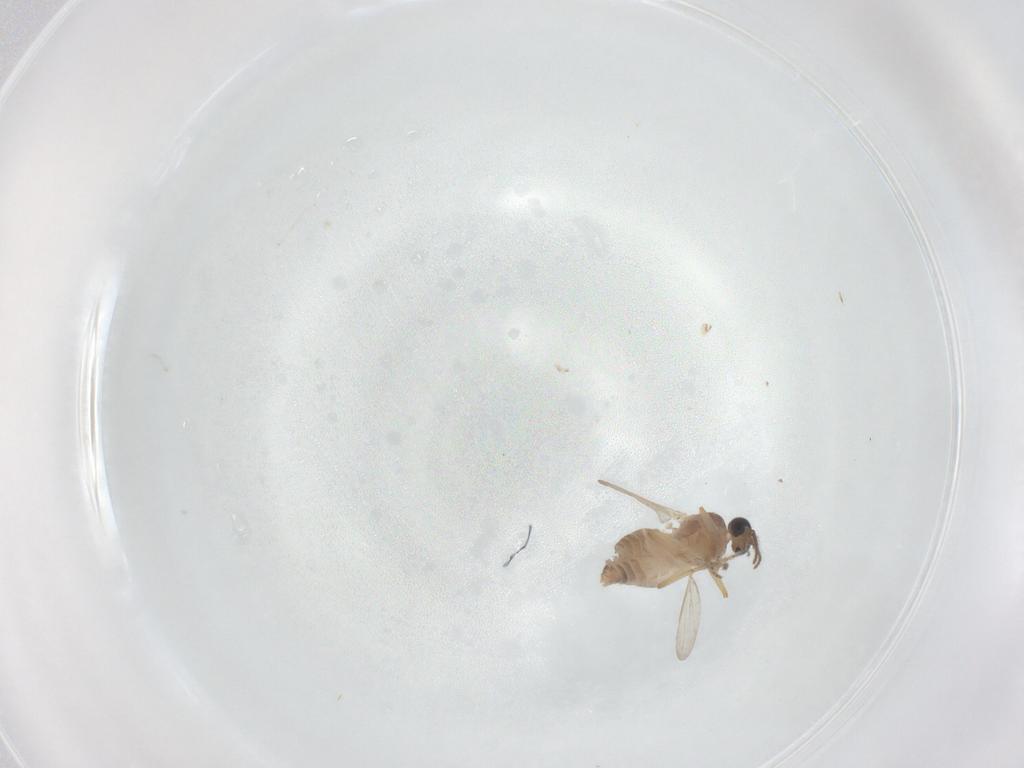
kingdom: Animalia
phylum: Arthropoda
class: Insecta
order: Diptera
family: Ceratopogonidae
